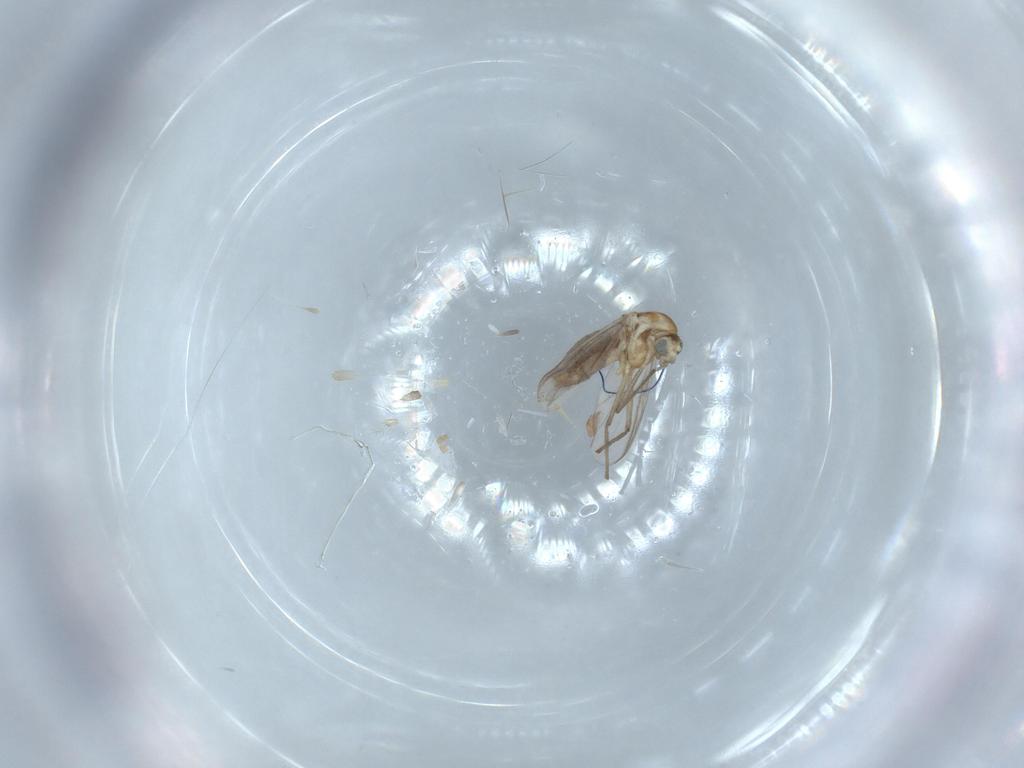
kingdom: Animalia
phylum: Arthropoda
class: Insecta
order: Diptera
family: Chironomidae
